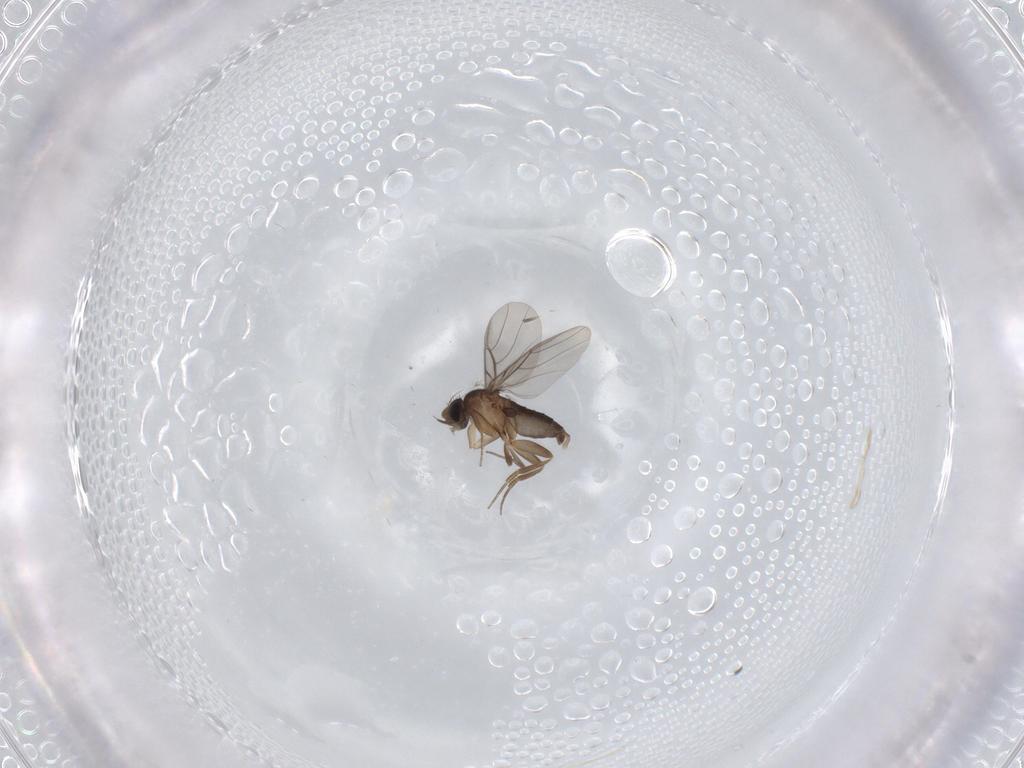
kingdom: Animalia
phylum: Arthropoda
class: Insecta
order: Diptera
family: Phoridae
